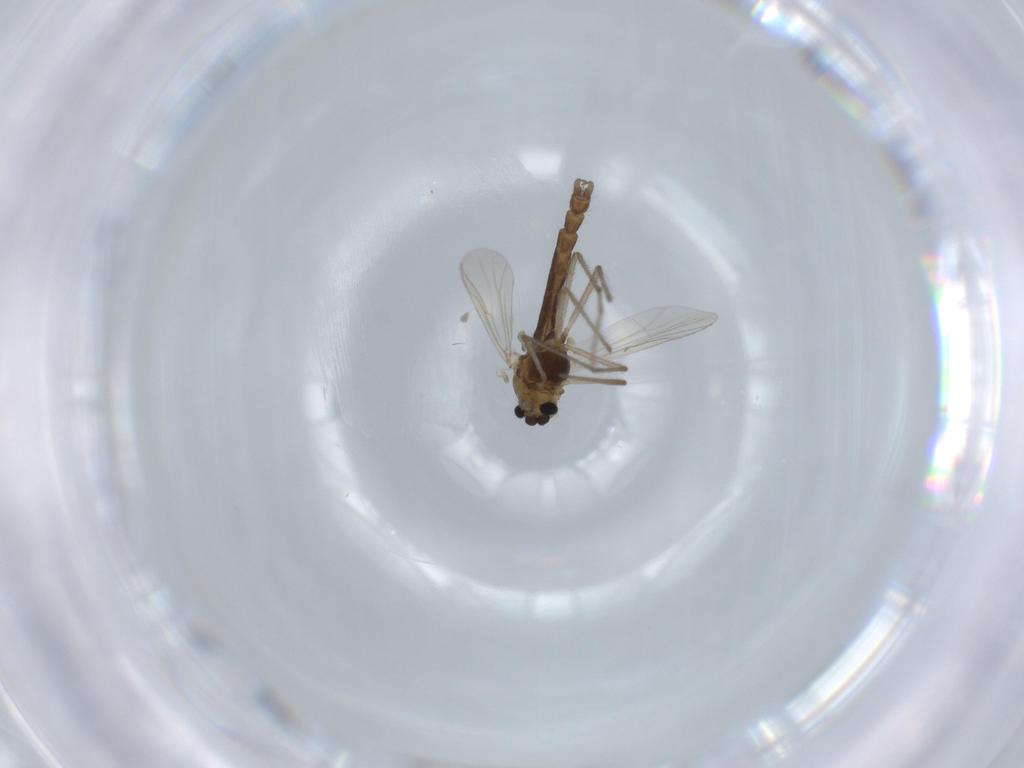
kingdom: Animalia
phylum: Arthropoda
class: Insecta
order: Diptera
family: Chironomidae
